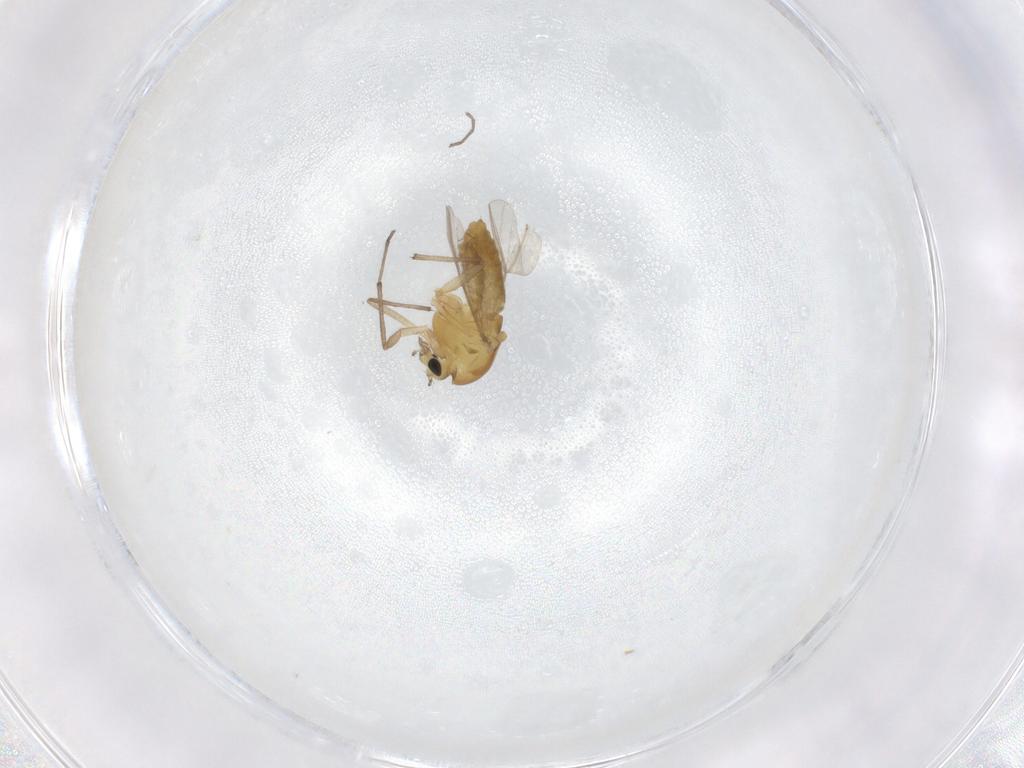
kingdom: Animalia
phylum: Arthropoda
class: Insecta
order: Diptera
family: Chironomidae
